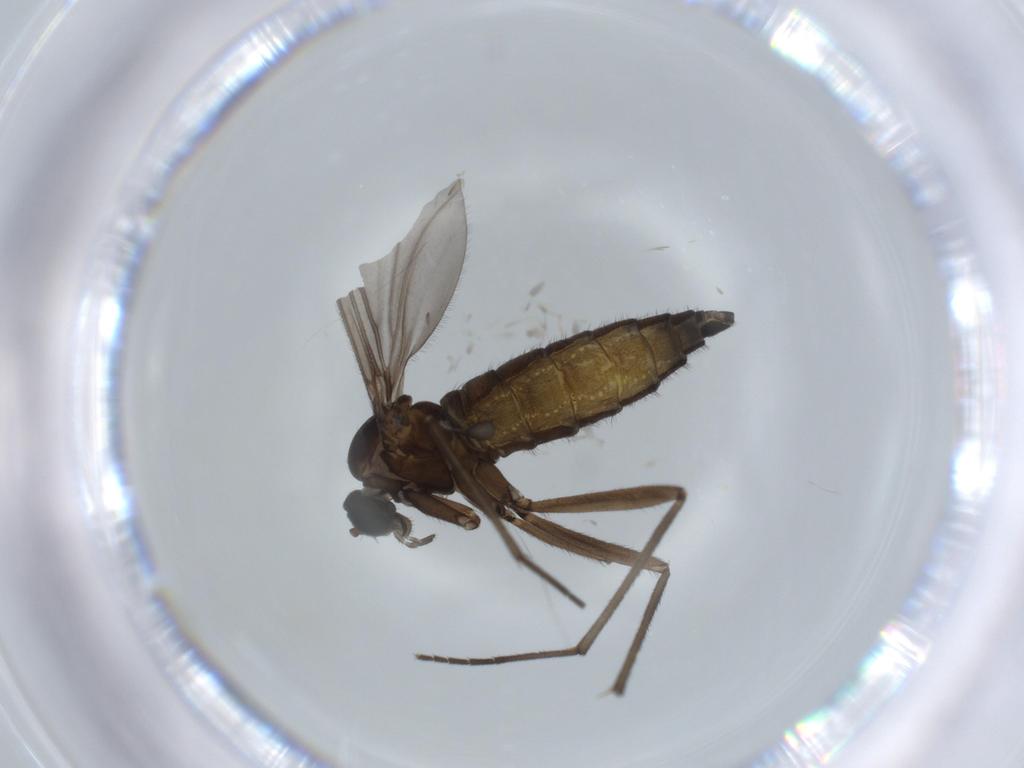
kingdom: Animalia
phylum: Arthropoda
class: Insecta
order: Diptera
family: Sciaridae
